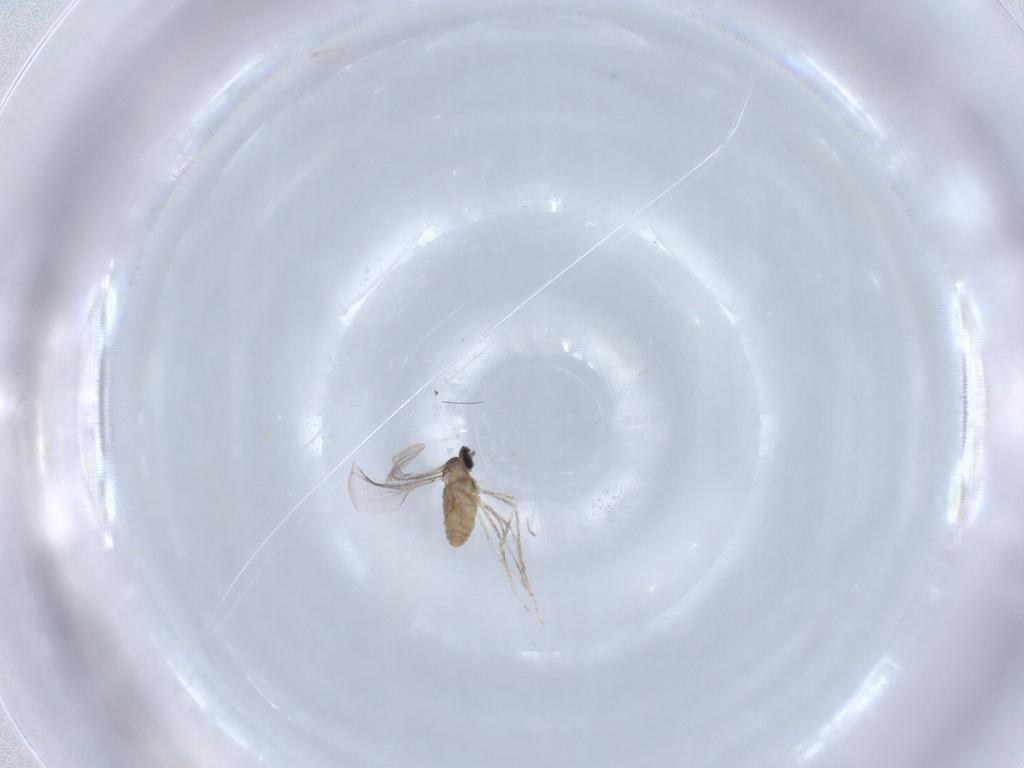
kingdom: Animalia
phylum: Arthropoda
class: Insecta
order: Diptera
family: Cecidomyiidae
